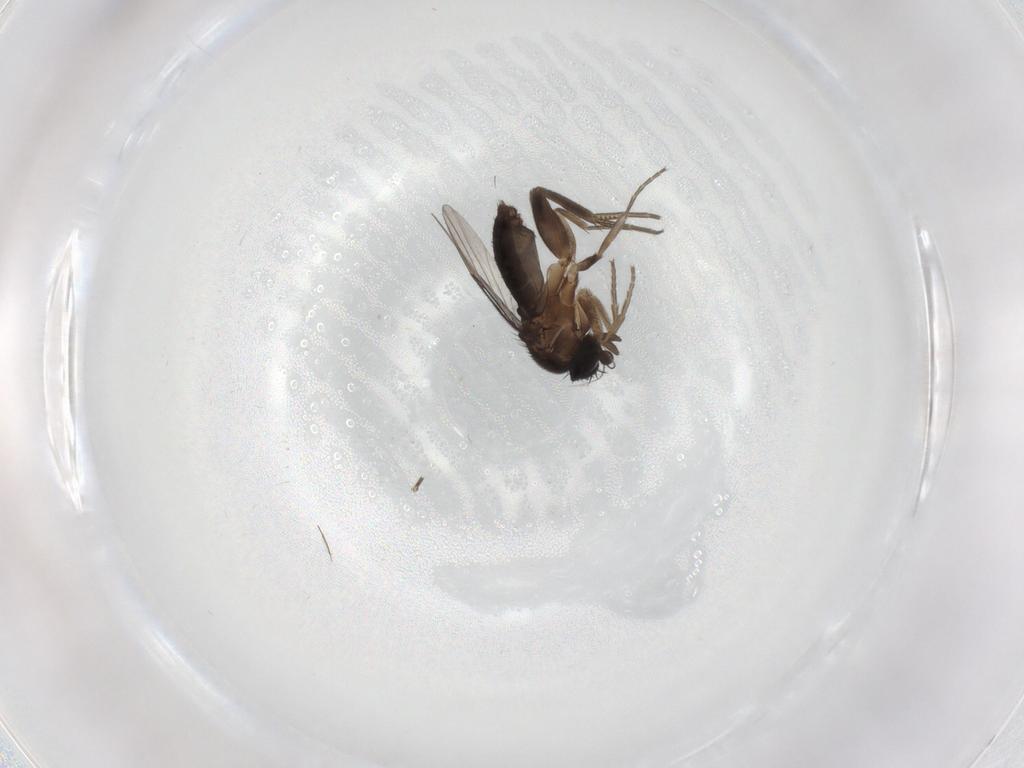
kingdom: Animalia
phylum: Arthropoda
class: Insecta
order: Diptera
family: Phoridae
